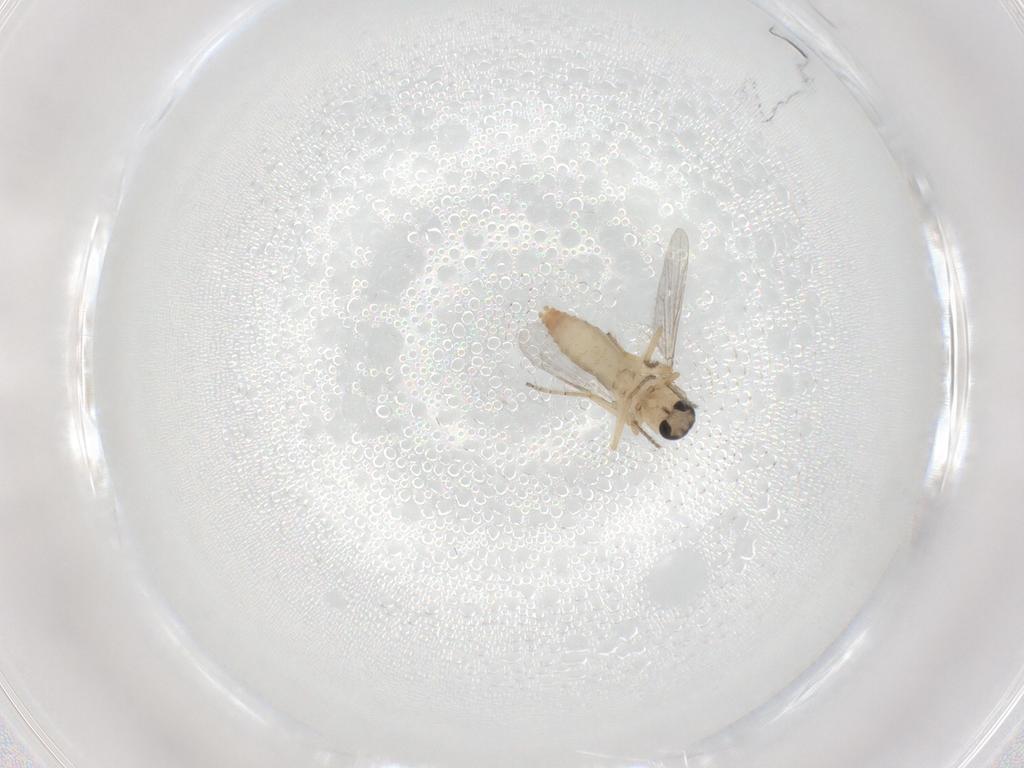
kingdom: Animalia
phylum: Arthropoda
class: Insecta
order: Diptera
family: Ceratopogonidae
